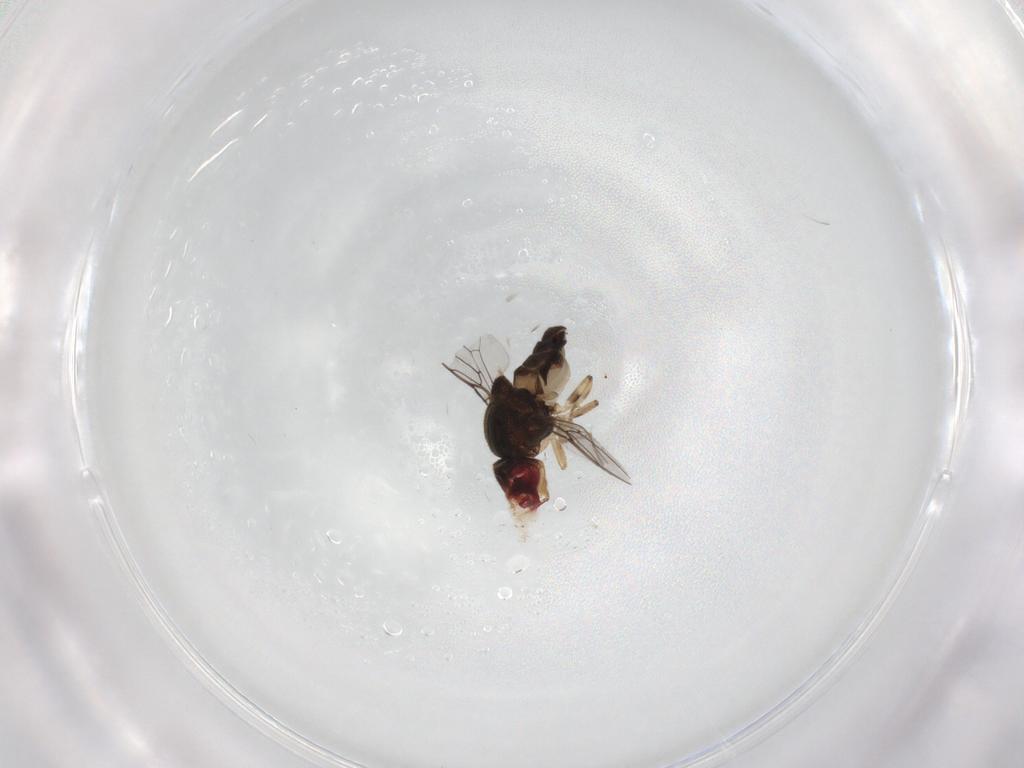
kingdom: Animalia
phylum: Arthropoda
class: Insecta
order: Diptera
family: Chloropidae
